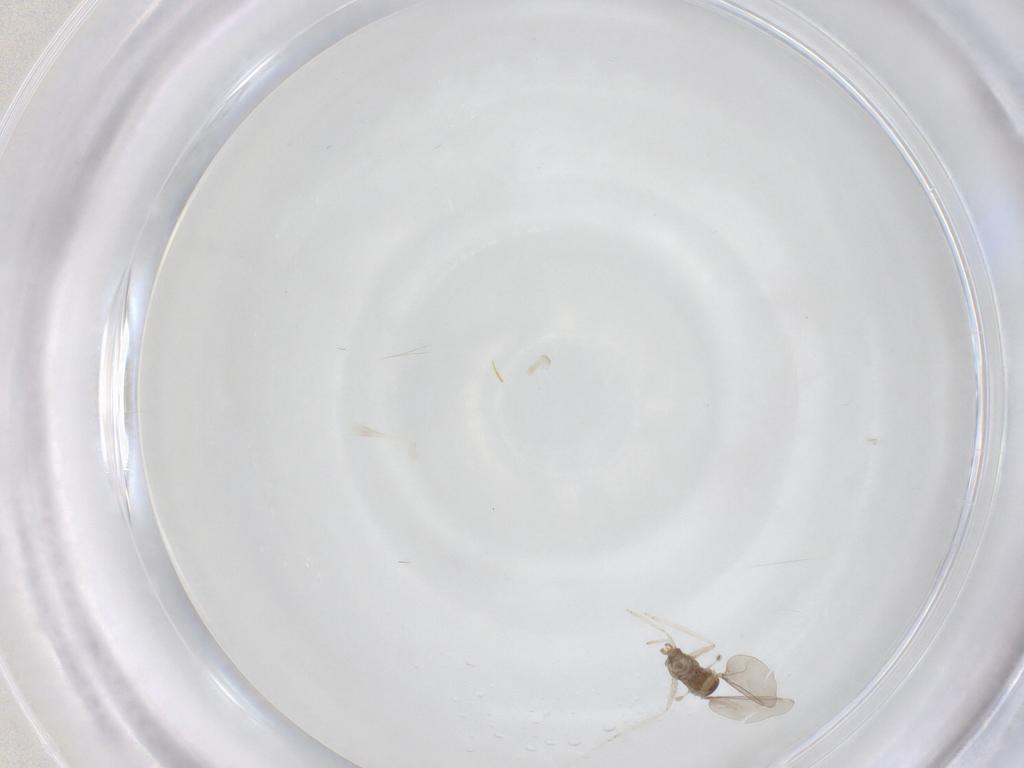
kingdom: Animalia
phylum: Arthropoda
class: Insecta
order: Diptera
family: Cecidomyiidae
